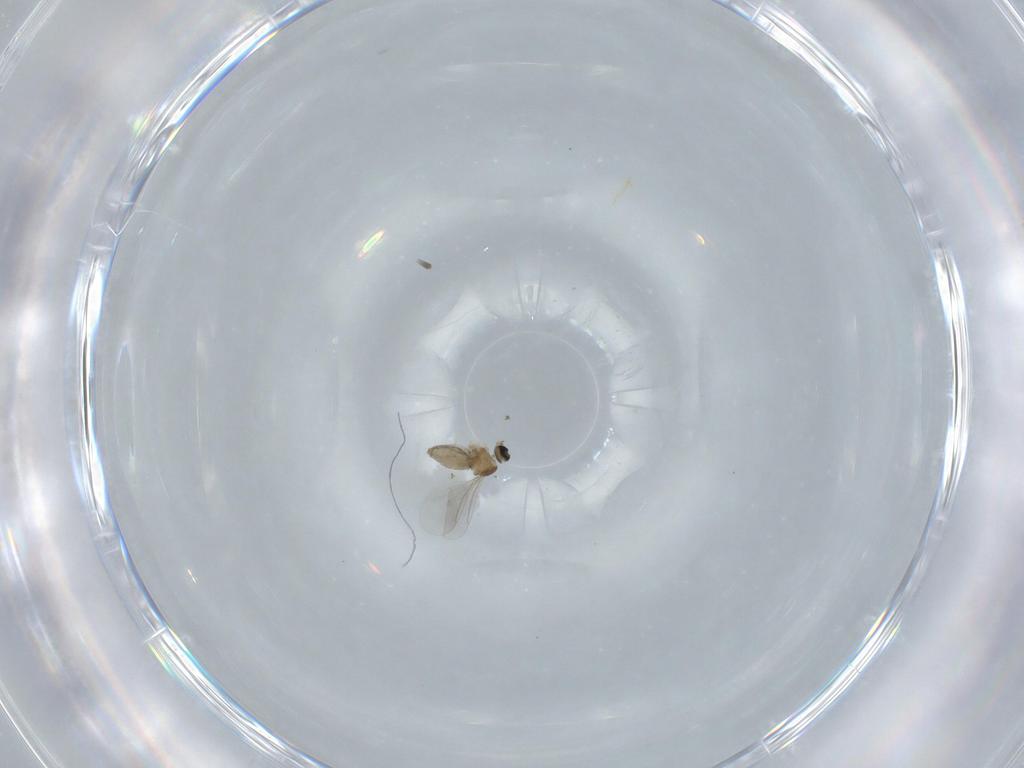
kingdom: Animalia
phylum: Arthropoda
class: Insecta
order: Diptera
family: Cecidomyiidae
